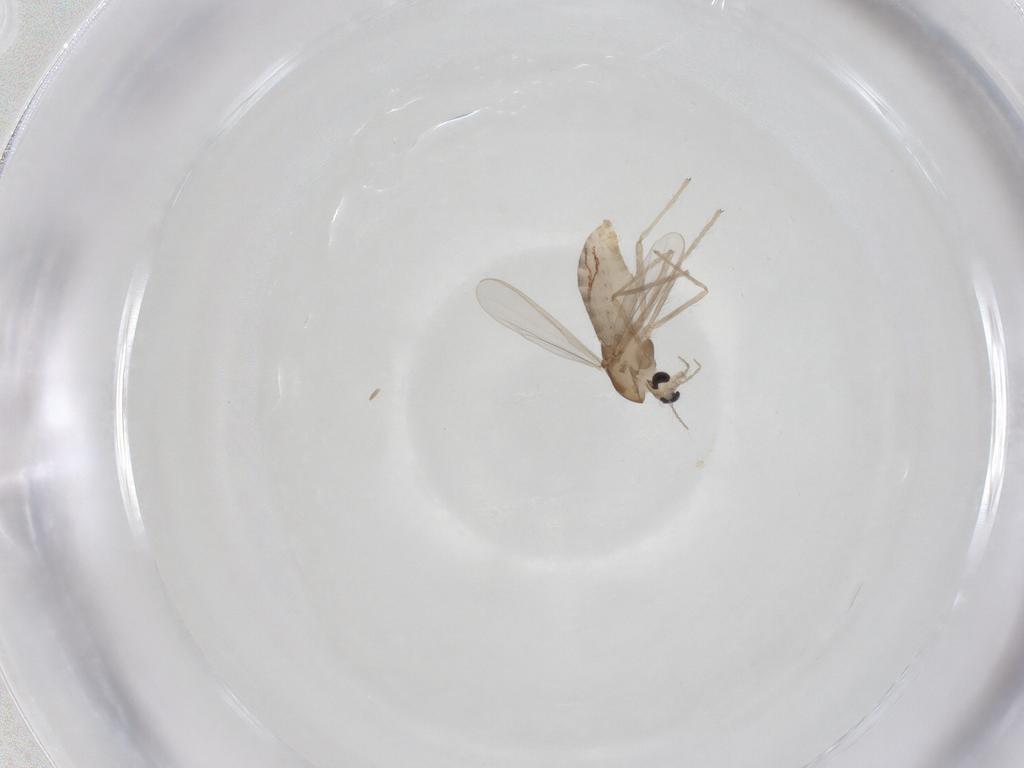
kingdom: Animalia
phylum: Arthropoda
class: Insecta
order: Diptera
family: Chironomidae
